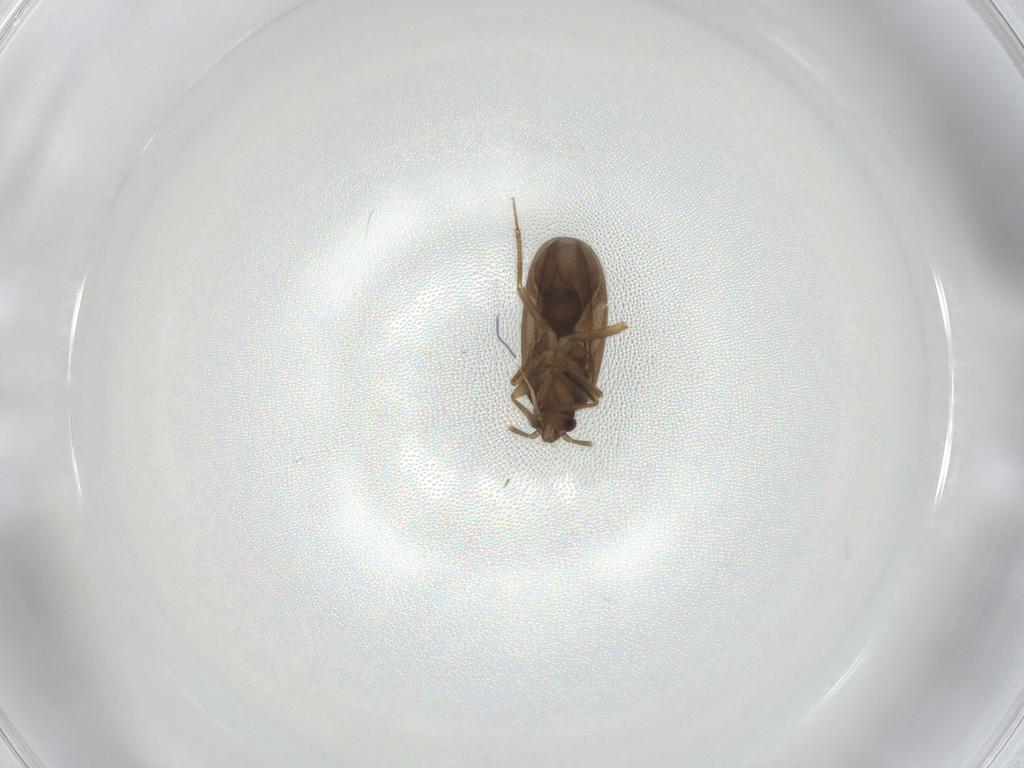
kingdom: Animalia
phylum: Arthropoda
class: Insecta
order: Hemiptera
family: Ceratocombidae
